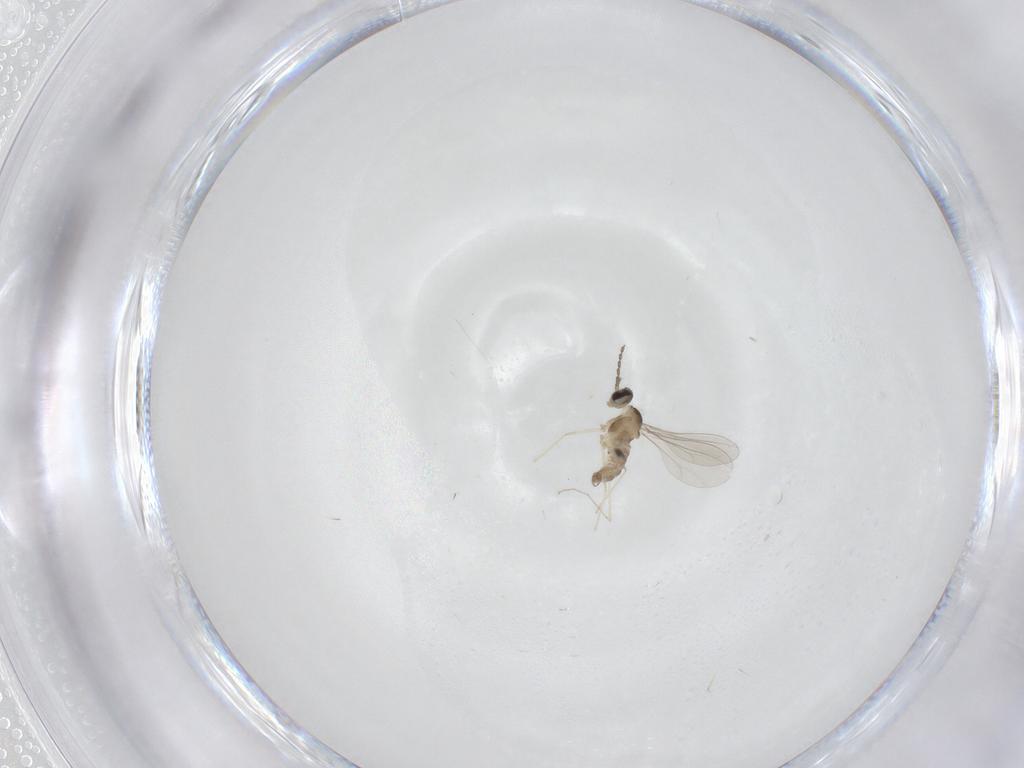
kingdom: Animalia
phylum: Arthropoda
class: Insecta
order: Diptera
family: Cecidomyiidae
